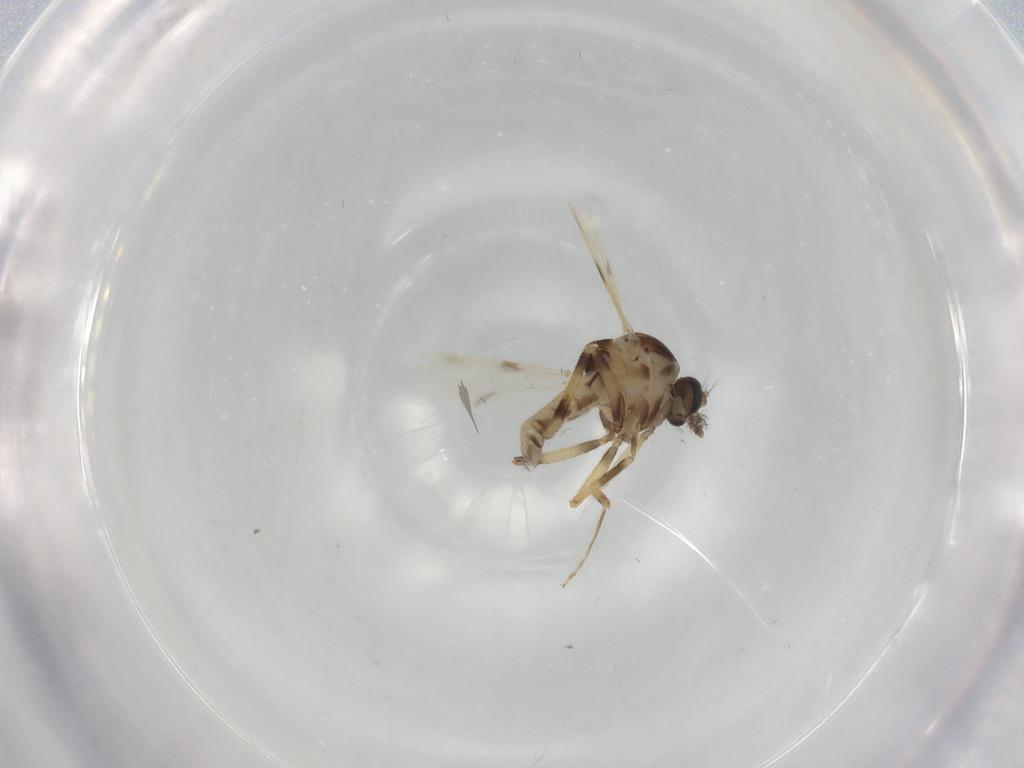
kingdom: Animalia
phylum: Arthropoda
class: Insecta
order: Diptera
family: Ceratopogonidae
